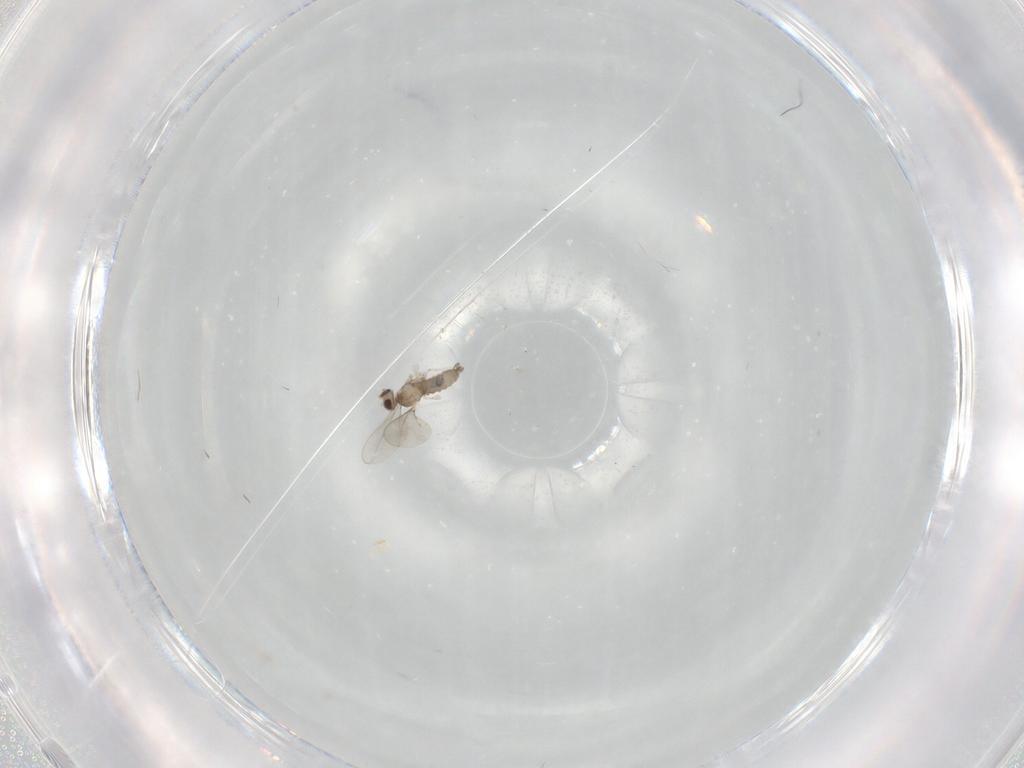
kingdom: Animalia
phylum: Arthropoda
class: Insecta
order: Diptera
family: Cecidomyiidae
